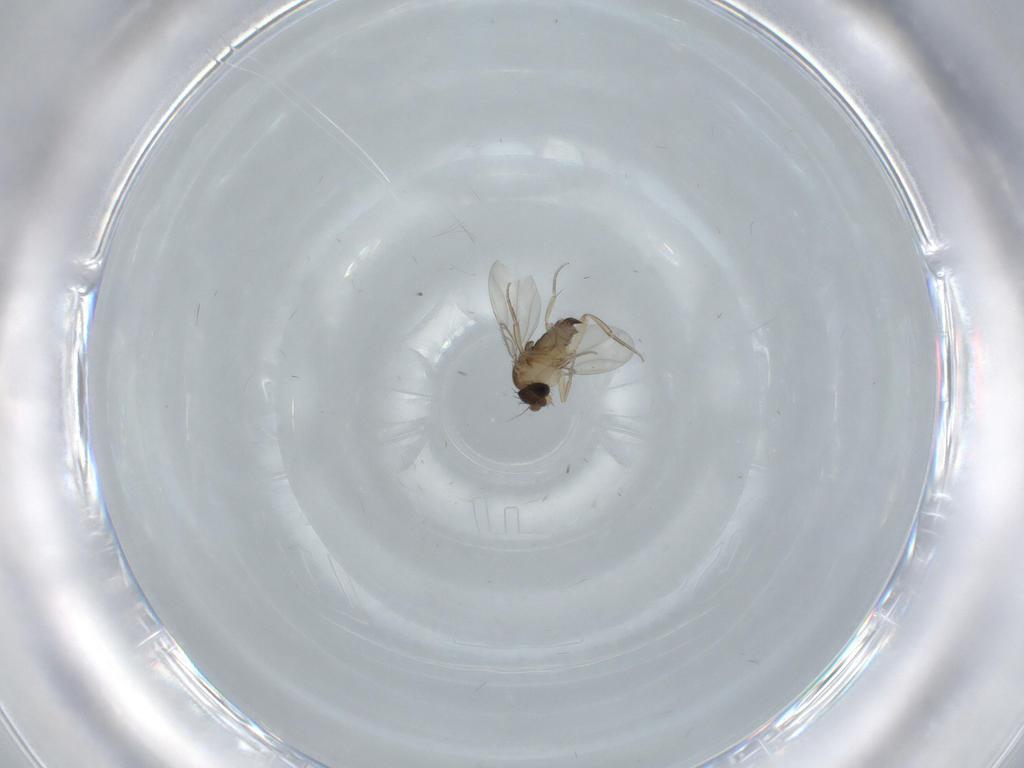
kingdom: Animalia
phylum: Arthropoda
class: Insecta
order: Diptera
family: Phoridae
